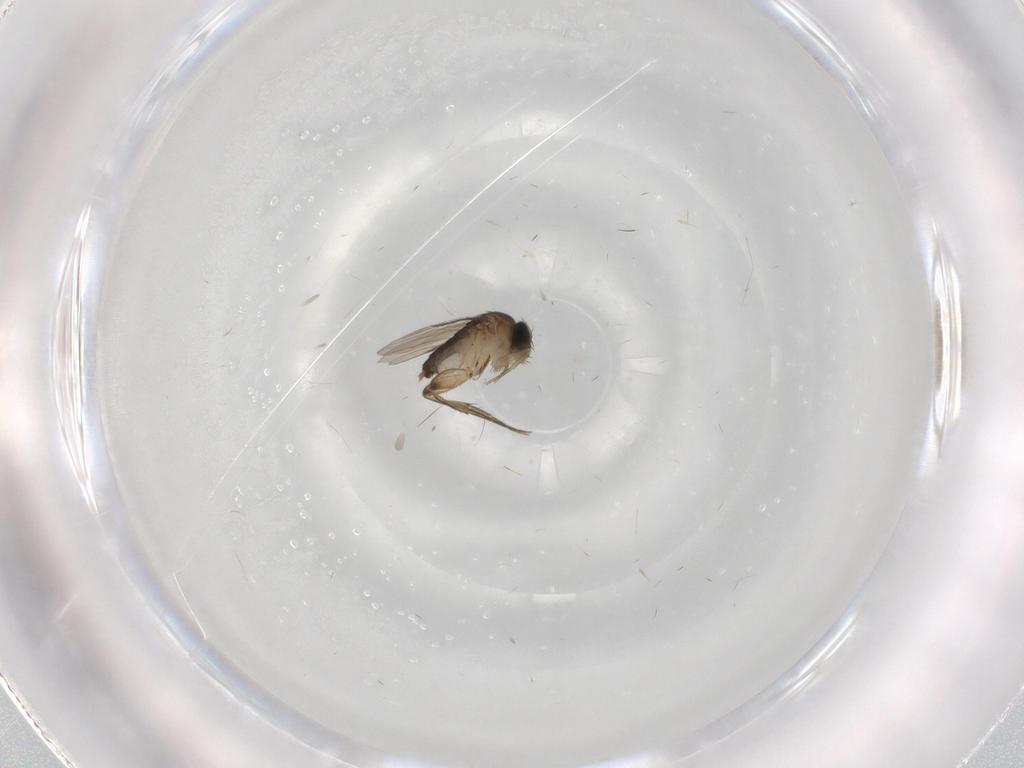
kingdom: Animalia
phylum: Arthropoda
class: Insecta
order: Diptera
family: Phoridae
